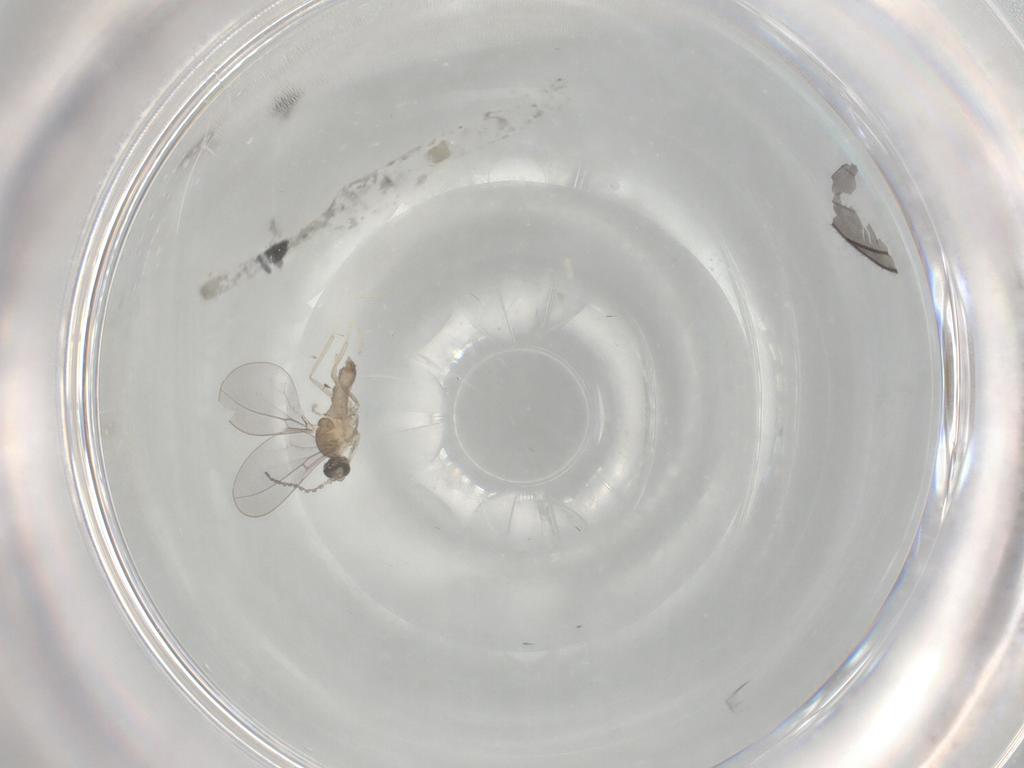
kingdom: Animalia
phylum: Arthropoda
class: Insecta
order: Diptera
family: Cecidomyiidae
